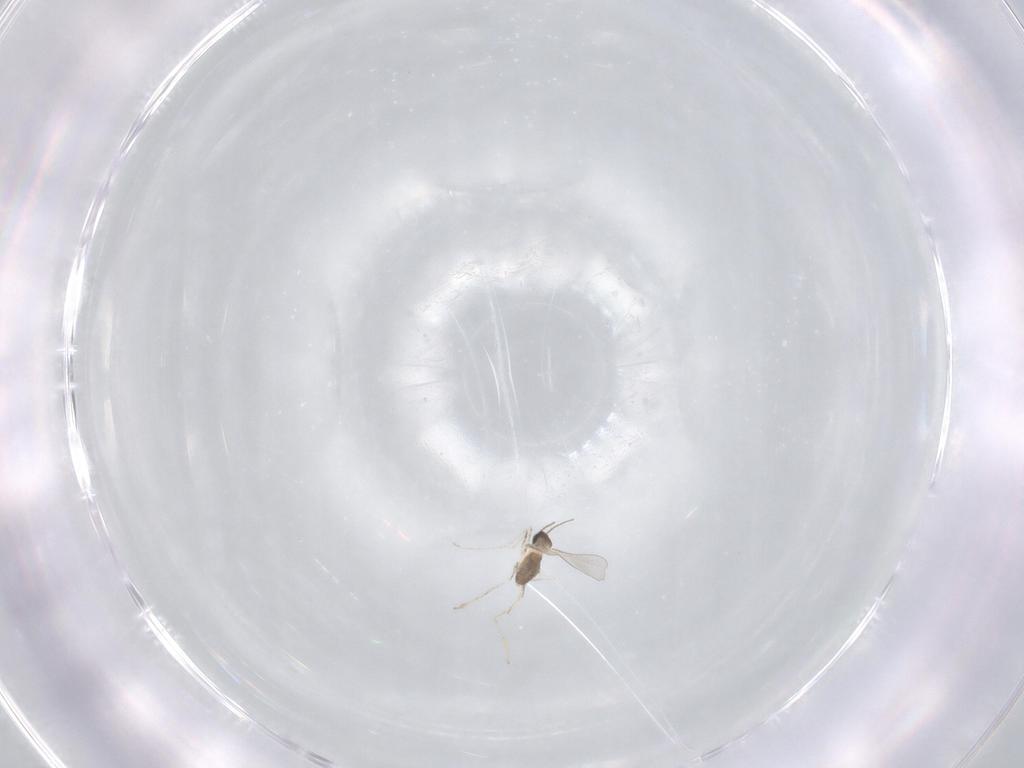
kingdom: Animalia
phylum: Arthropoda
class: Insecta
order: Diptera
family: Cecidomyiidae
